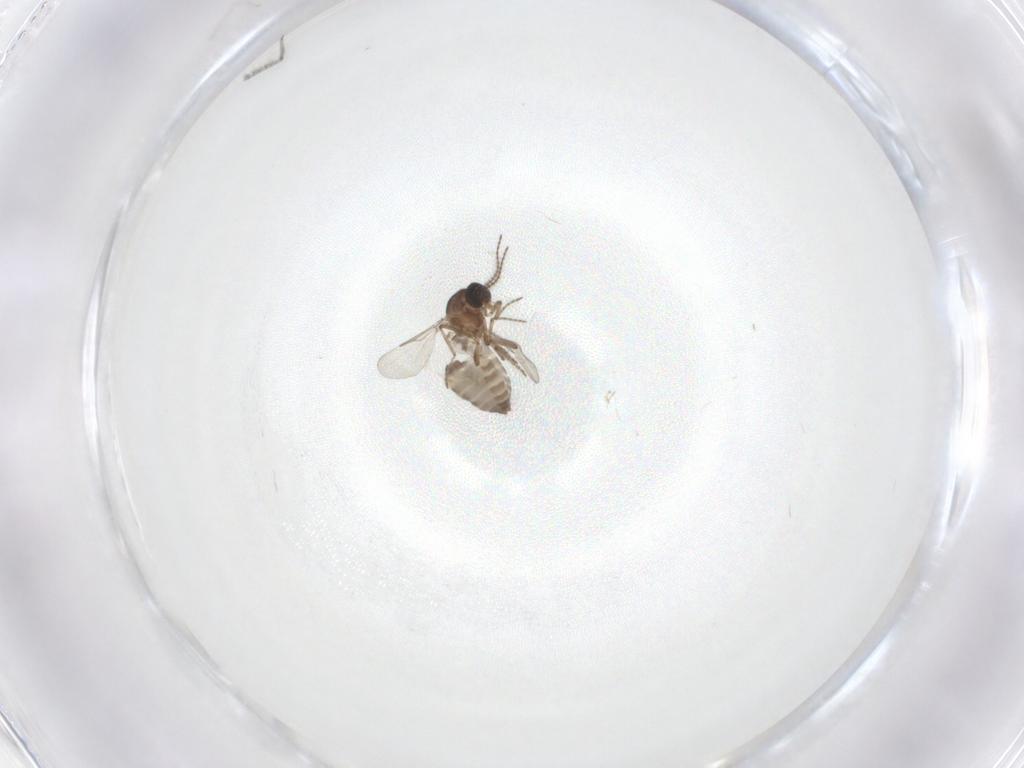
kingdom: Animalia
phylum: Arthropoda
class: Insecta
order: Diptera
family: Ceratopogonidae
